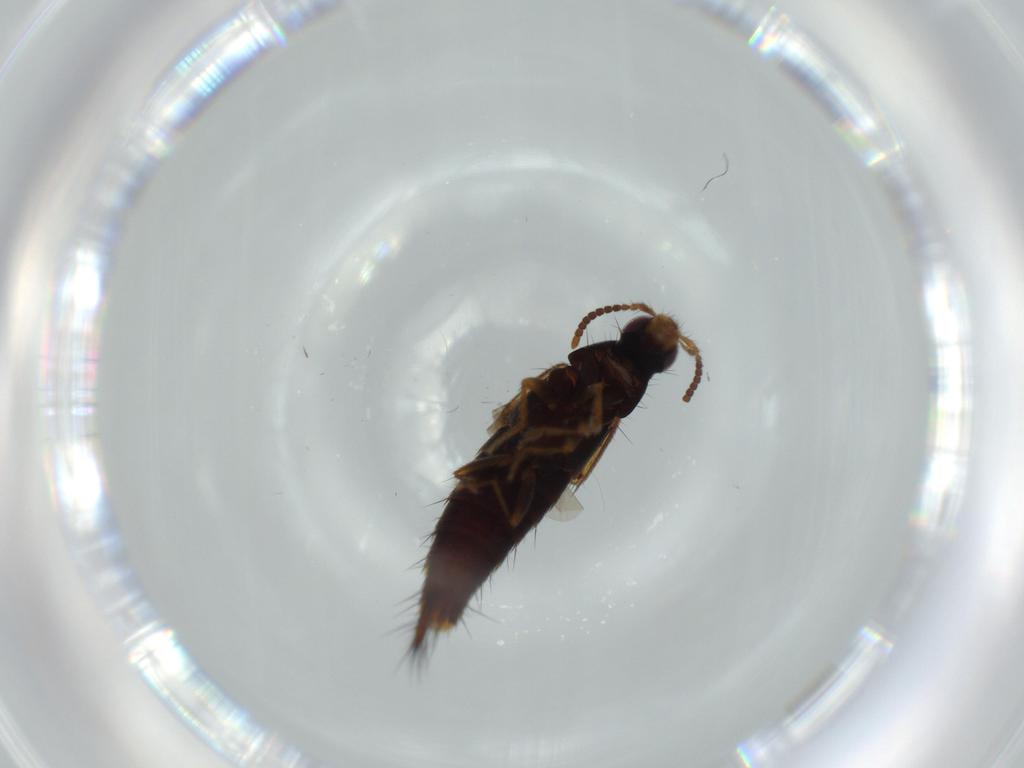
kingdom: Animalia
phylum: Arthropoda
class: Insecta
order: Coleoptera
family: Staphylinidae
